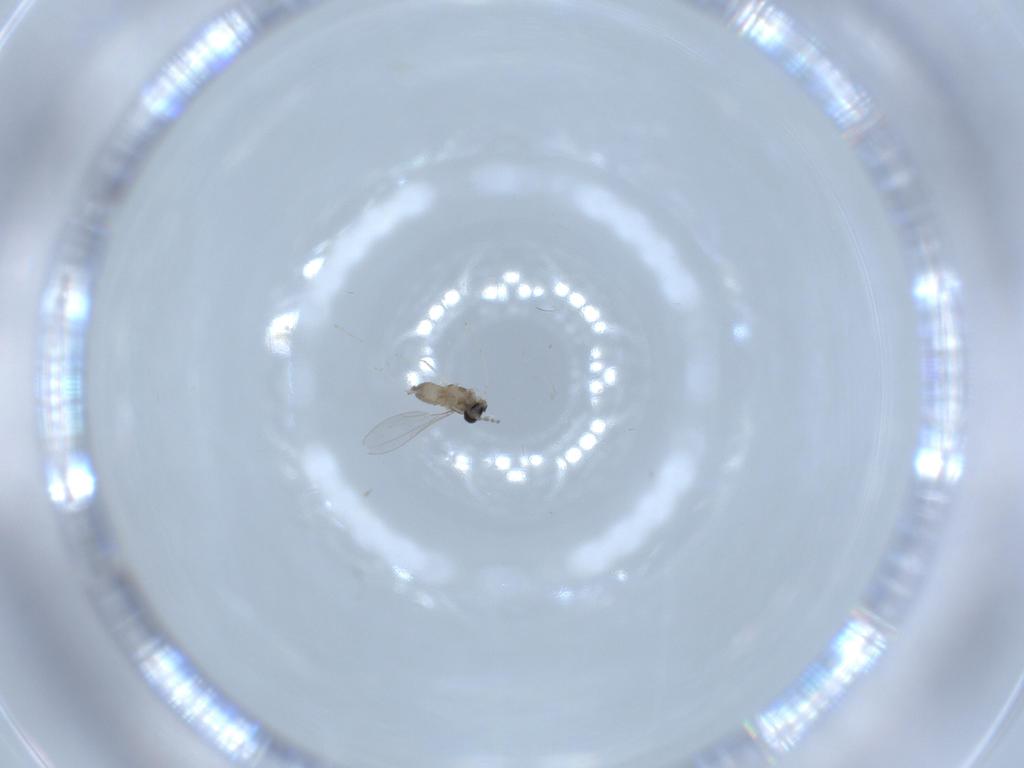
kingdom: Animalia
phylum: Arthropoda
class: Insecta
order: Diptera
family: Cecidomyiidae
